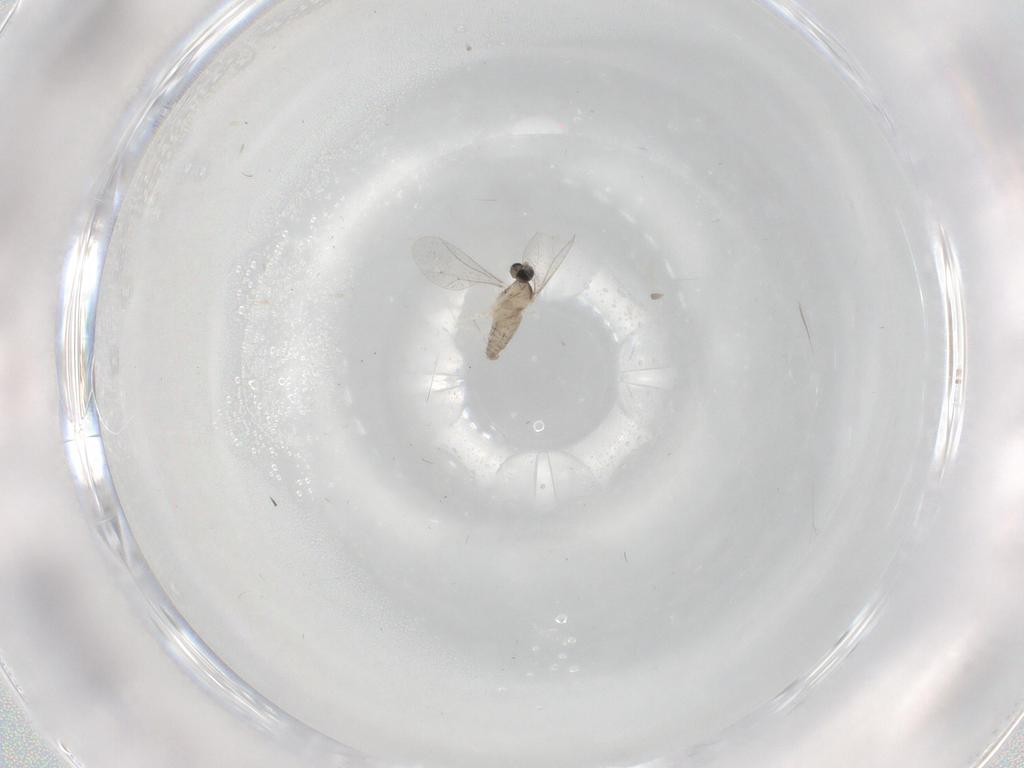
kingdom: Animalia
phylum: Arthropoda
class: Insecta
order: Diptera
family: Cecidomyiidae
